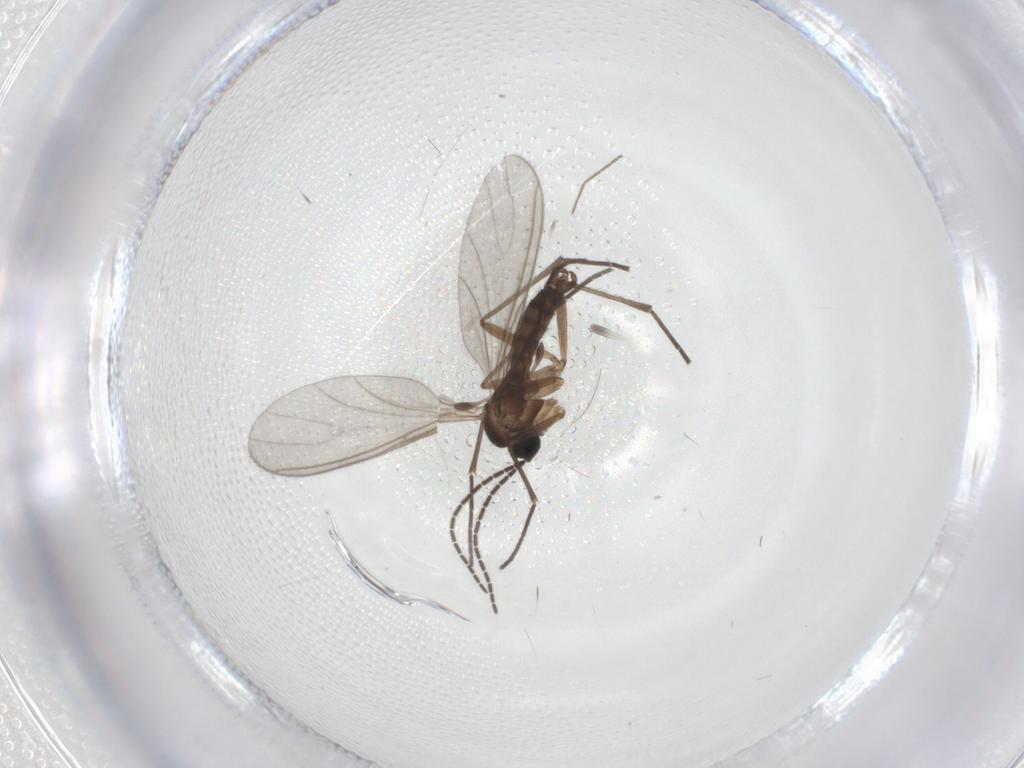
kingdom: Animalia
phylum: Arthropoda
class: Insecta
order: Diptera
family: Sciaridae
